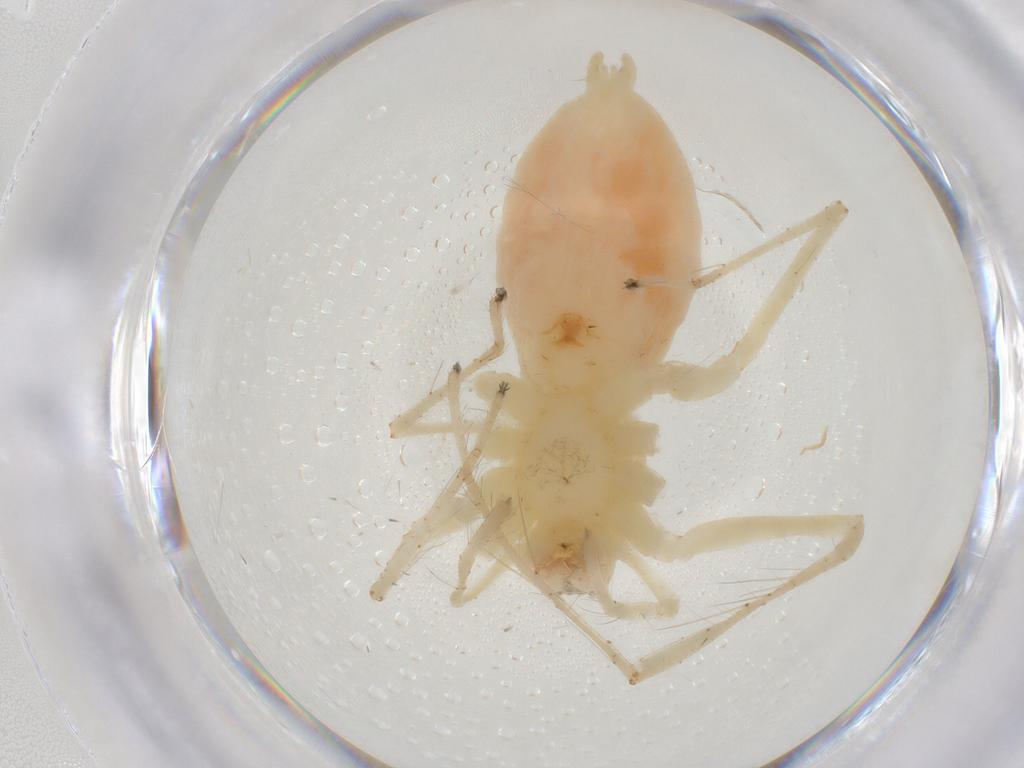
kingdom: Animalia
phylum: Arthropoda
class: Arachnida
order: Araneae
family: Anyphaenidae
